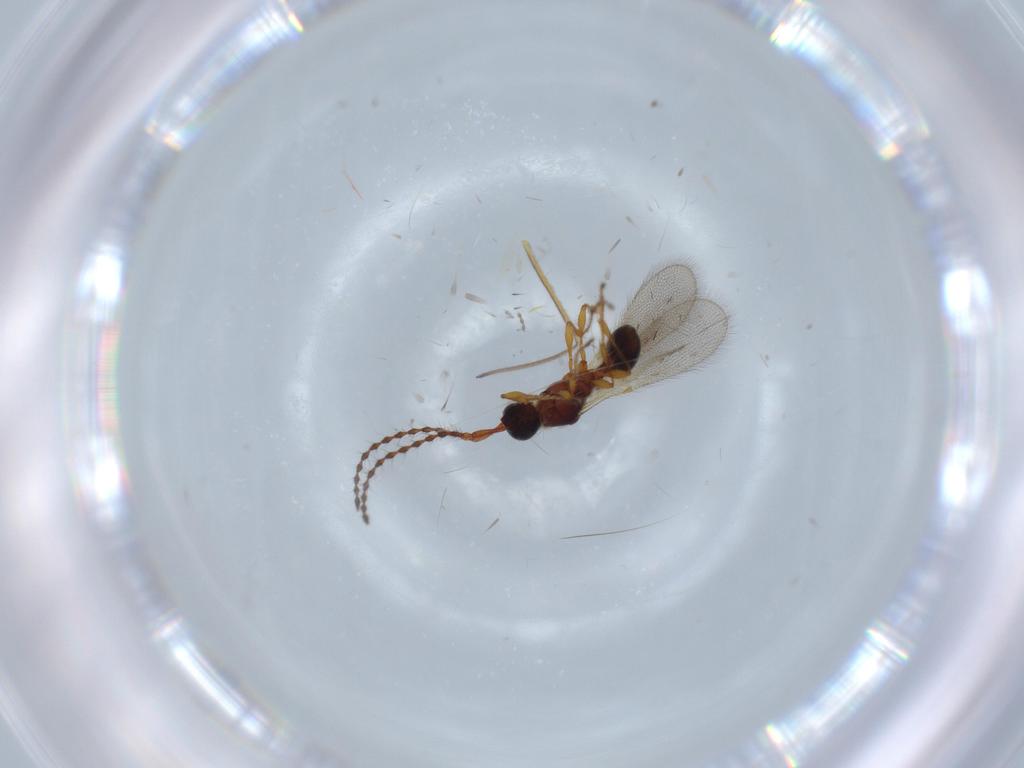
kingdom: Animalia
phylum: Arthropoda
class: Insecta
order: Hymenoptera
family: Diapriidae
